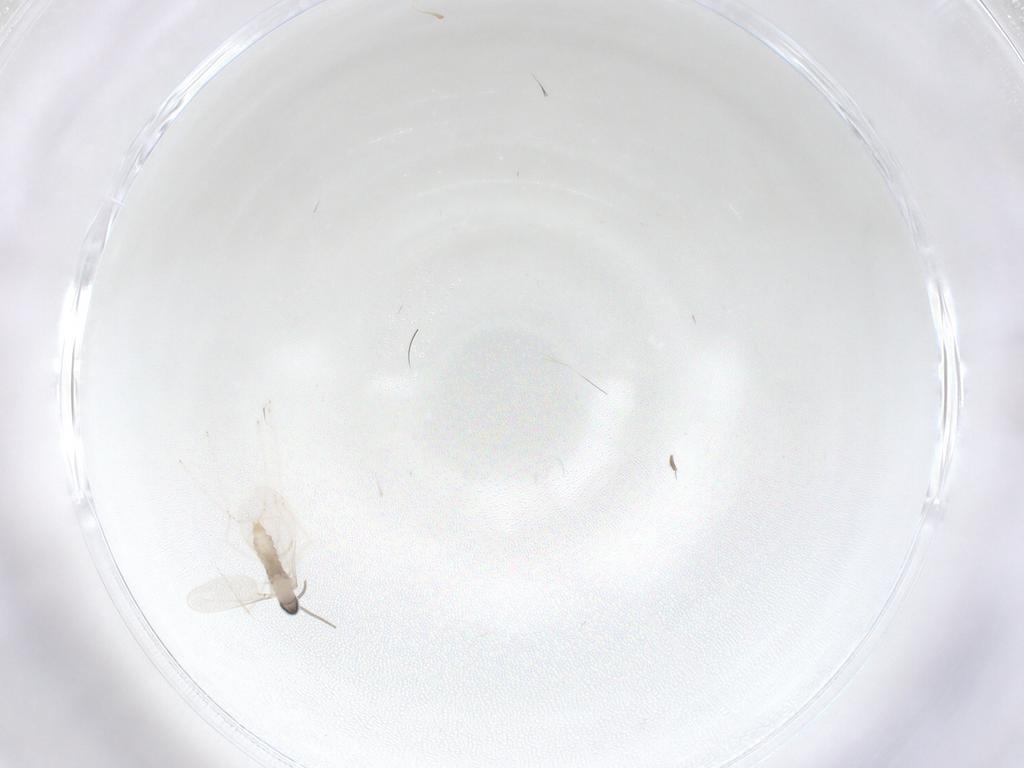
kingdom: Animalia
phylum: Arthropoda
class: Insecta
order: Diptera
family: Cecidomyiidae
